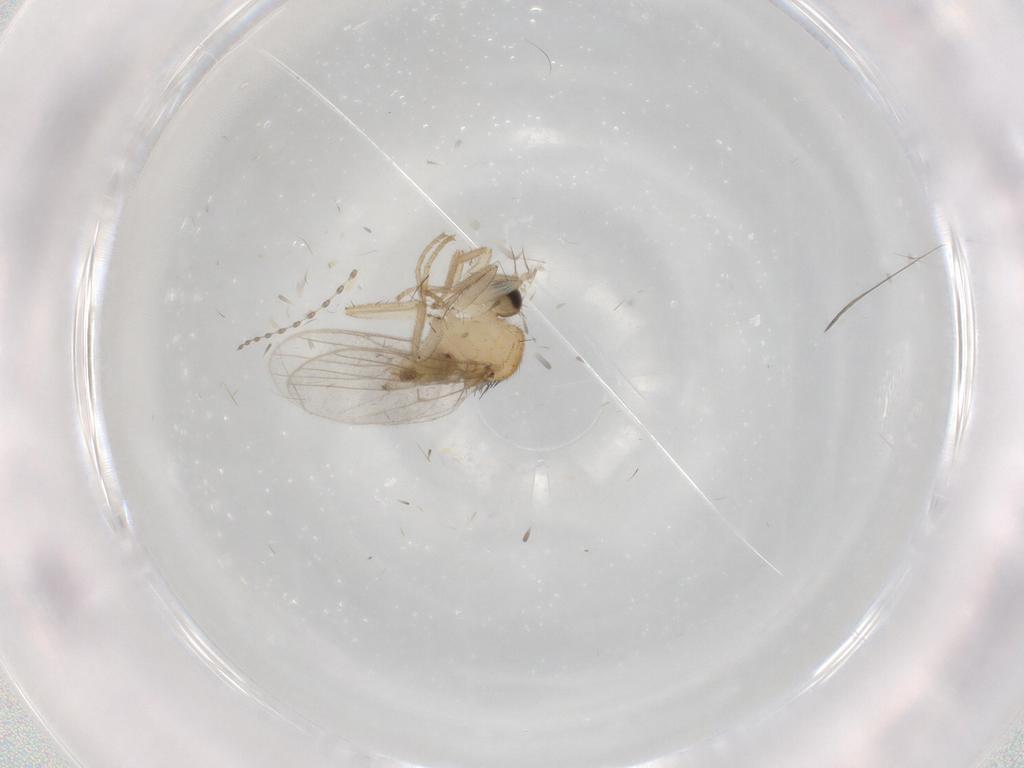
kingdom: Animalia
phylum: Arthropoda
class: Insecta
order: Diptera
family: Hybotidae
